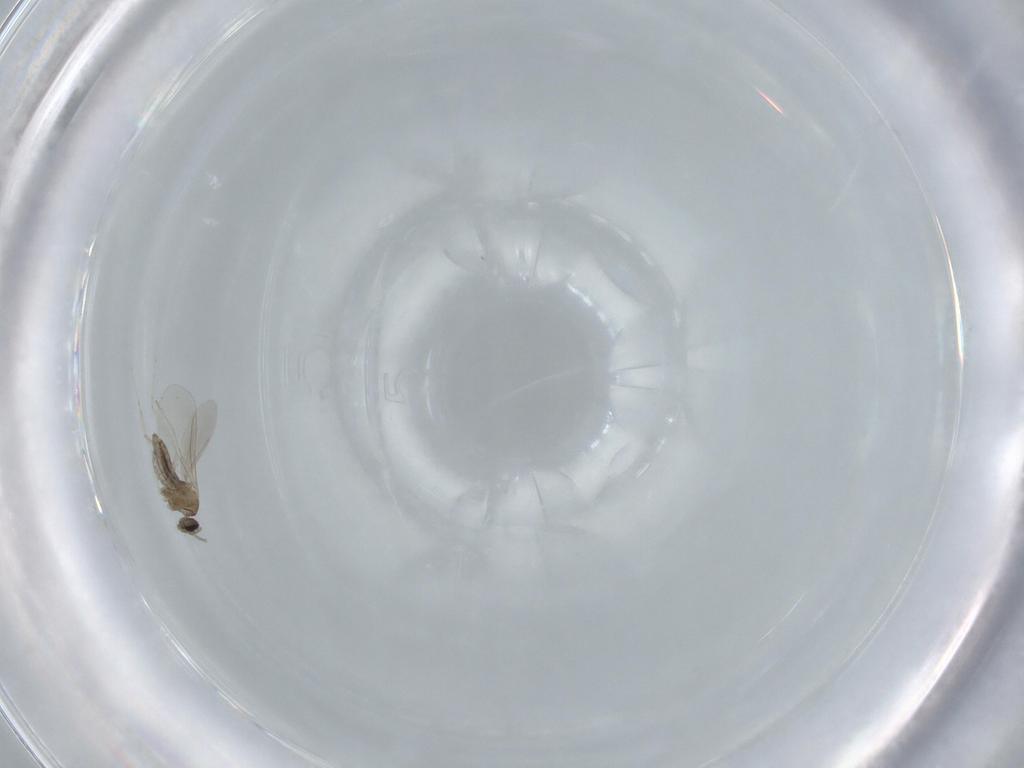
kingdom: Animalia
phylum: Arthropoda
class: Insecta
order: Diptera
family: Cecidomyiidae
